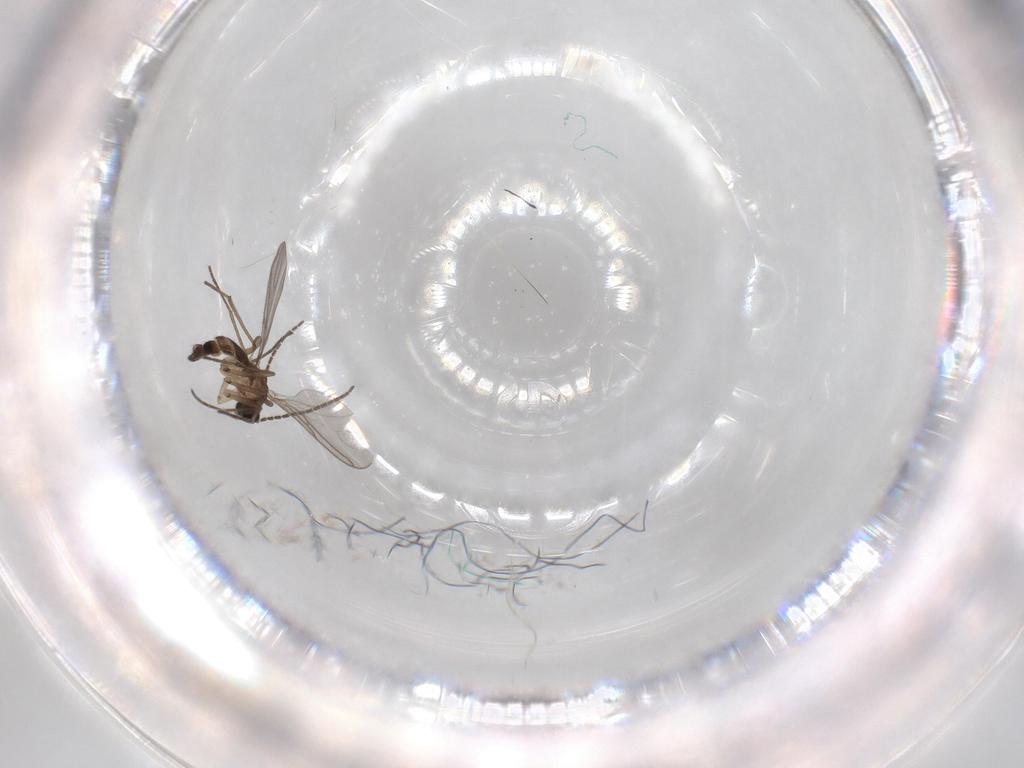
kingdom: Animalia
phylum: Arthropoda
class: Insecta
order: Diptera
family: Sciaridae
